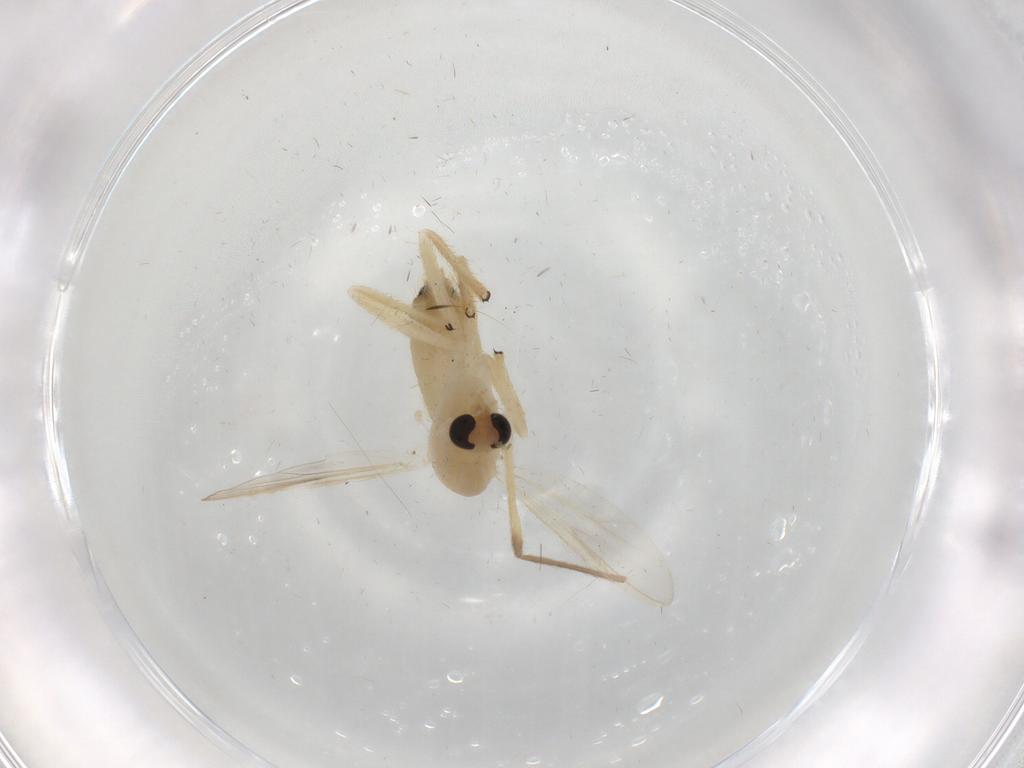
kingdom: Animalia
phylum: Arthropoda
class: Insecta
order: Diptera
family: Chironomidae
